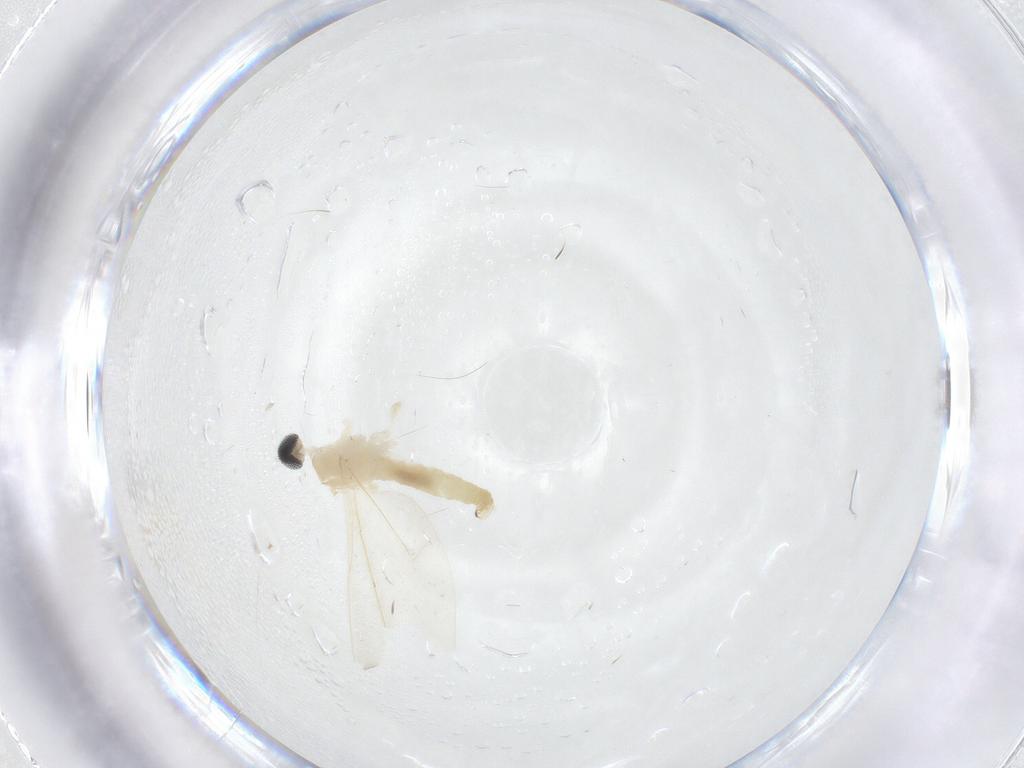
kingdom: Animalia
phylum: Arthropoda
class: Insecta
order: Diptera
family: Cecidomyiidae
